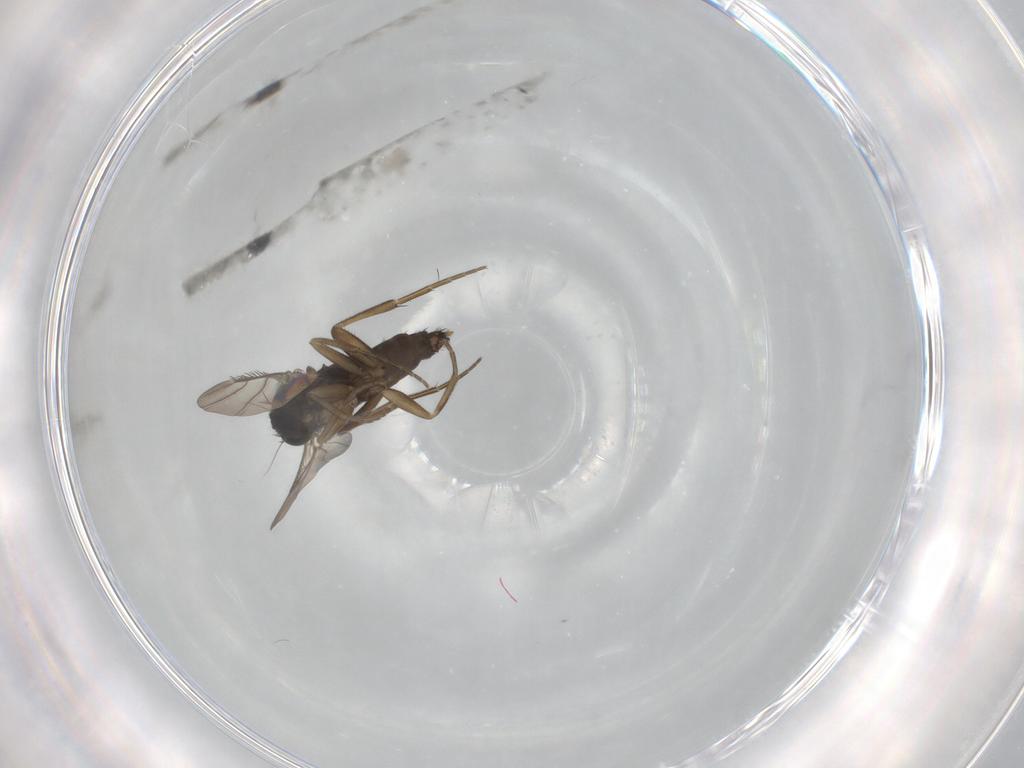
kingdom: Animalia
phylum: Arthropoda
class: Insecta
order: Diptera
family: Phoridae
